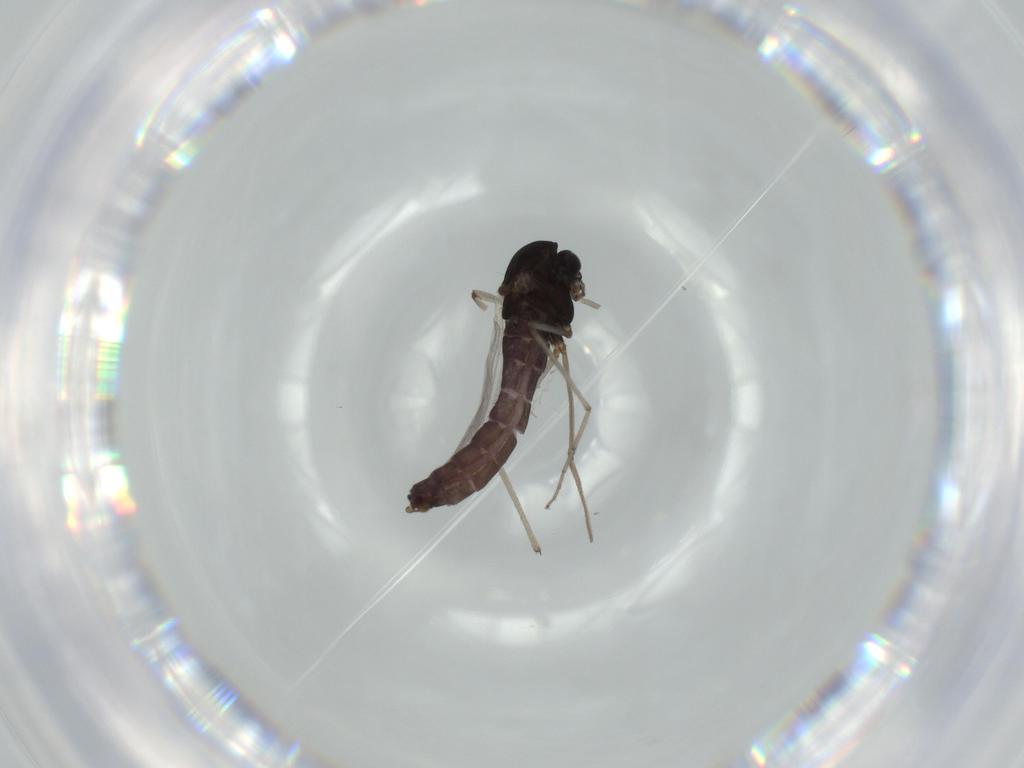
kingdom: Animalia
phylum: Arthropoda
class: Insecta
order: Diptera
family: Chironomidae
